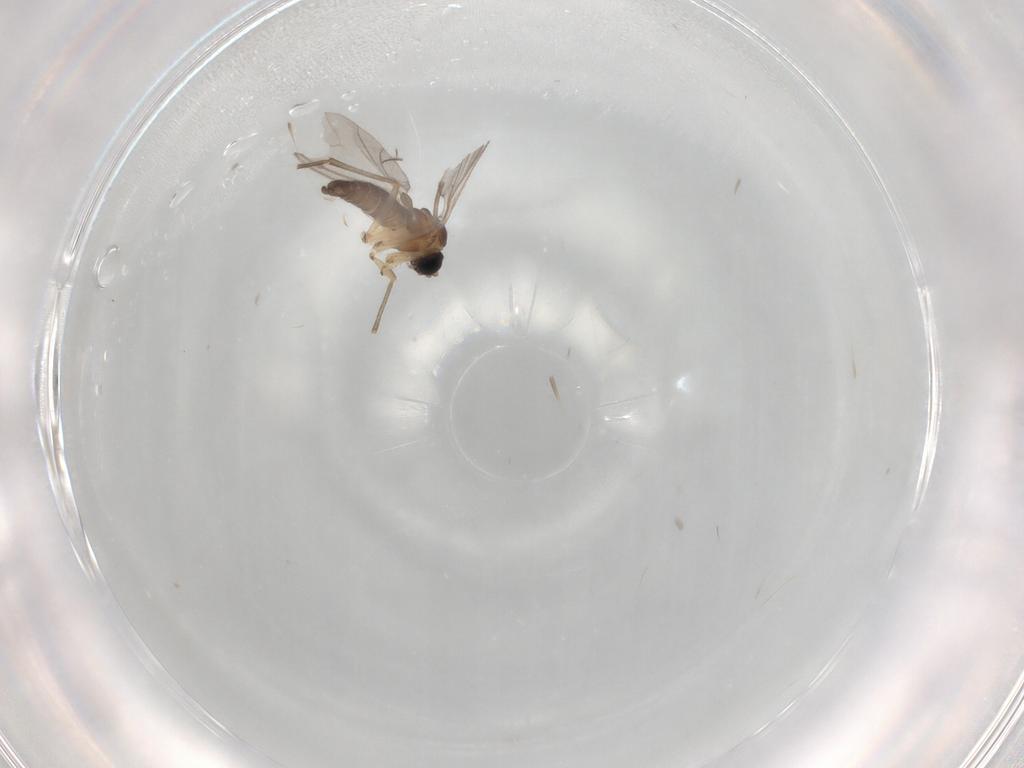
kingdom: Animalia
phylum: Arthropoda
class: Insecta
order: Diptera
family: Sciaridae
